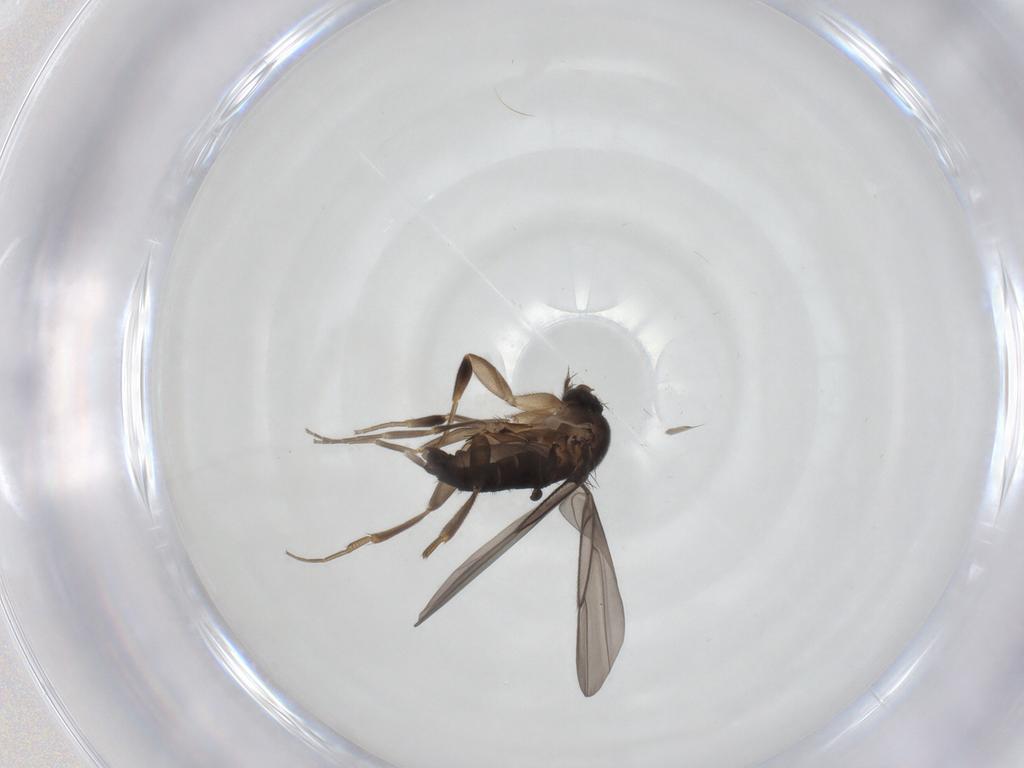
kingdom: Animalia
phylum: Arthropoda
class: Insecta
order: Diptera
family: Phoridae
